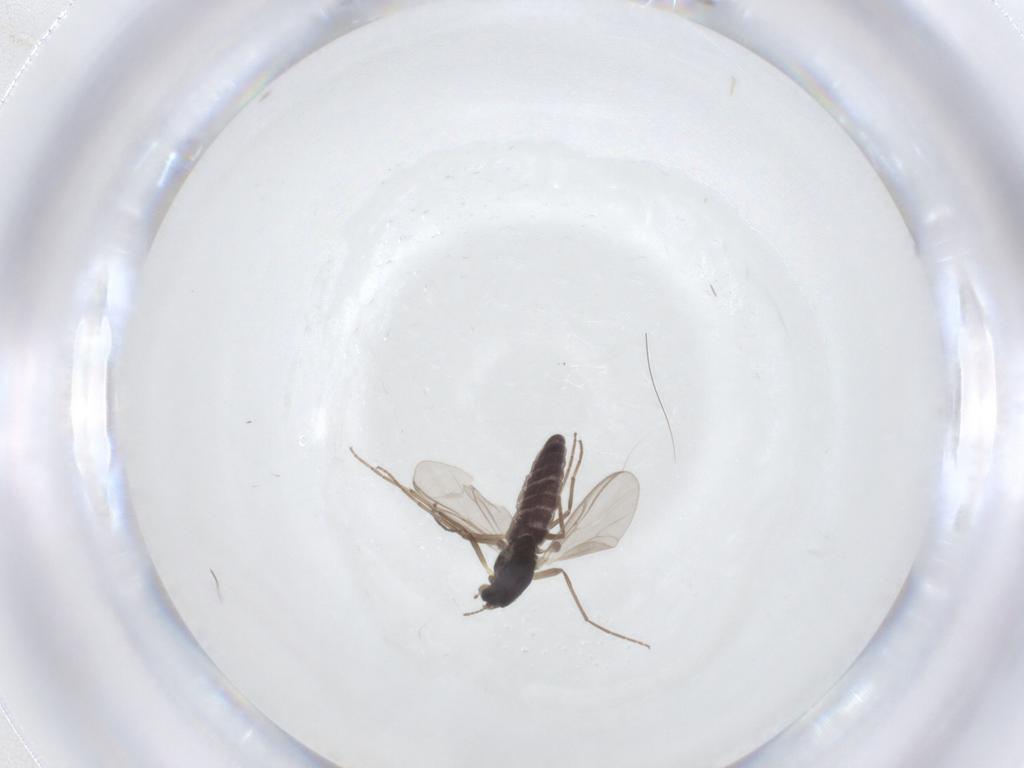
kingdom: Animalia
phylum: Arthropoda
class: Insecta
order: Diptera
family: Chironomidae
